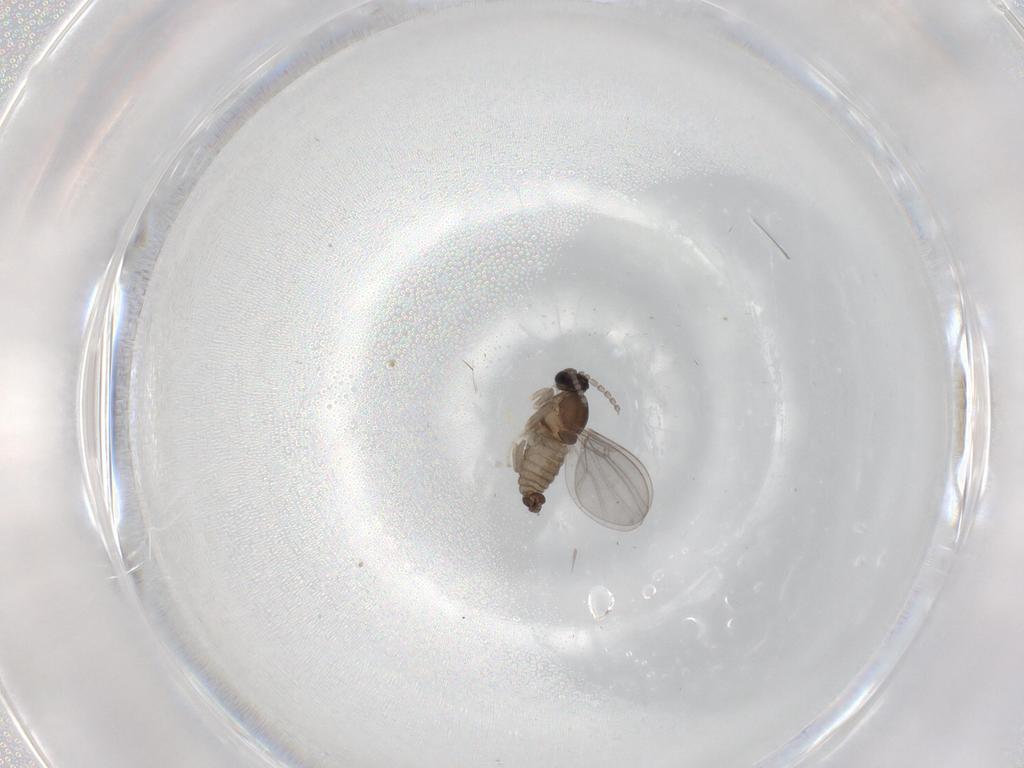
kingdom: Animalia
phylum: Arthropoda
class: Insecta
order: Diptera
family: Cecidomyiidae
